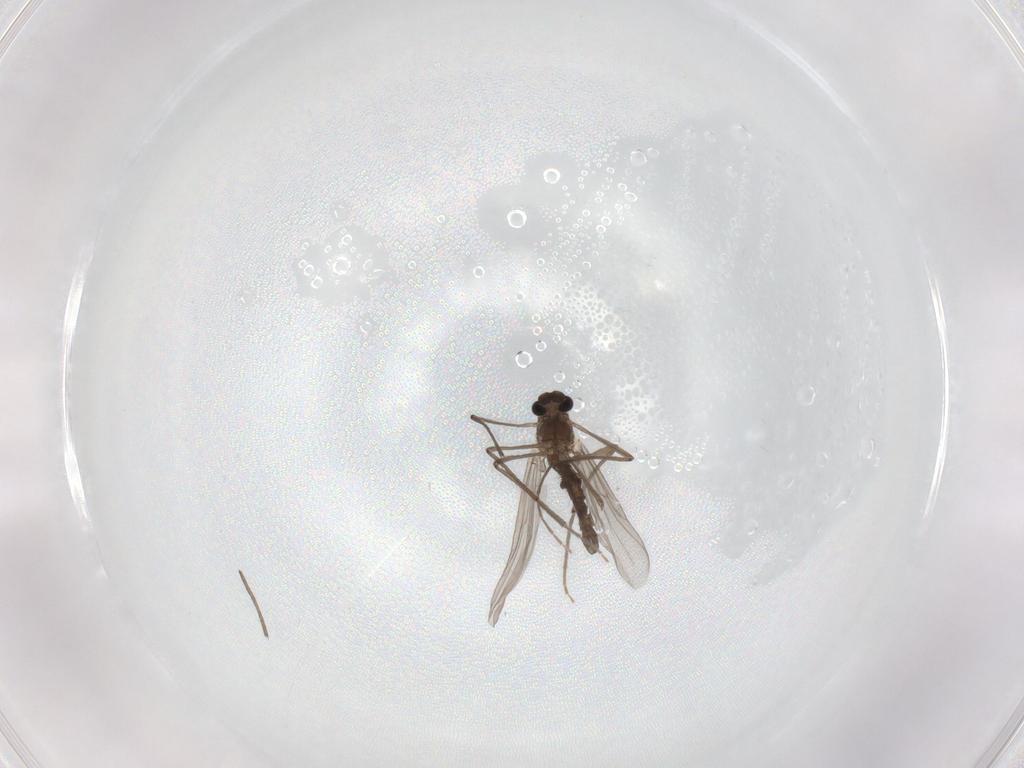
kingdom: Animalia
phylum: Arthropoda
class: Insecta
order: Diptera
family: Chironomidae
